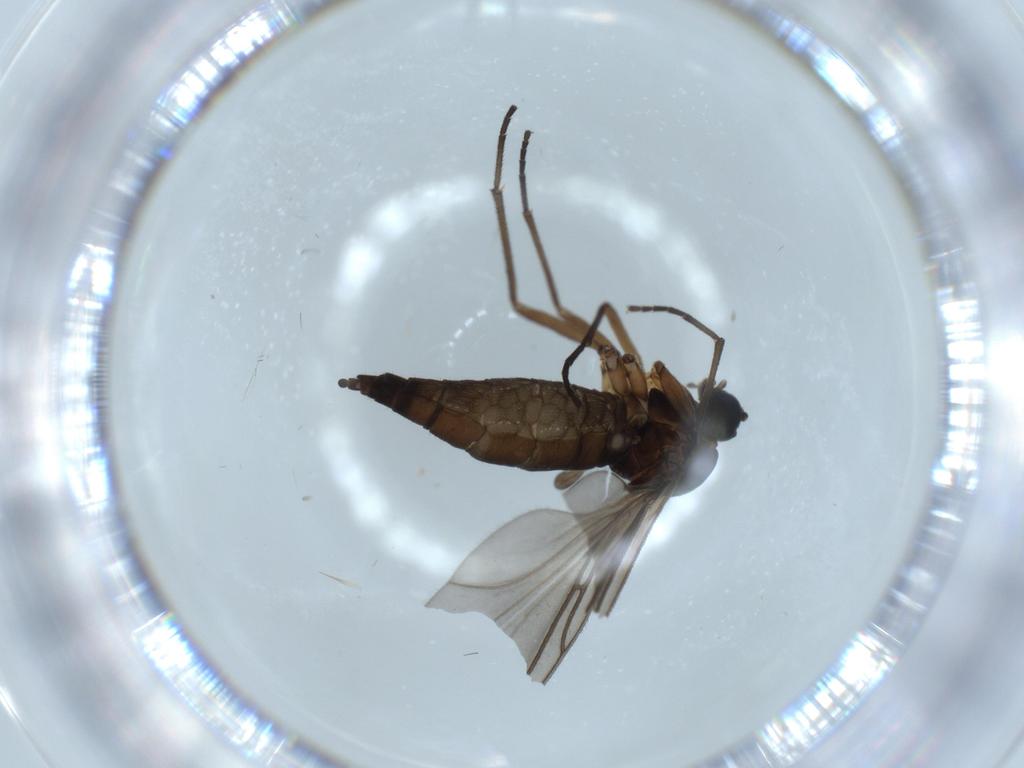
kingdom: Animalia
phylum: Arthropoda
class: Insecta
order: Diptera
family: Sciaridae
